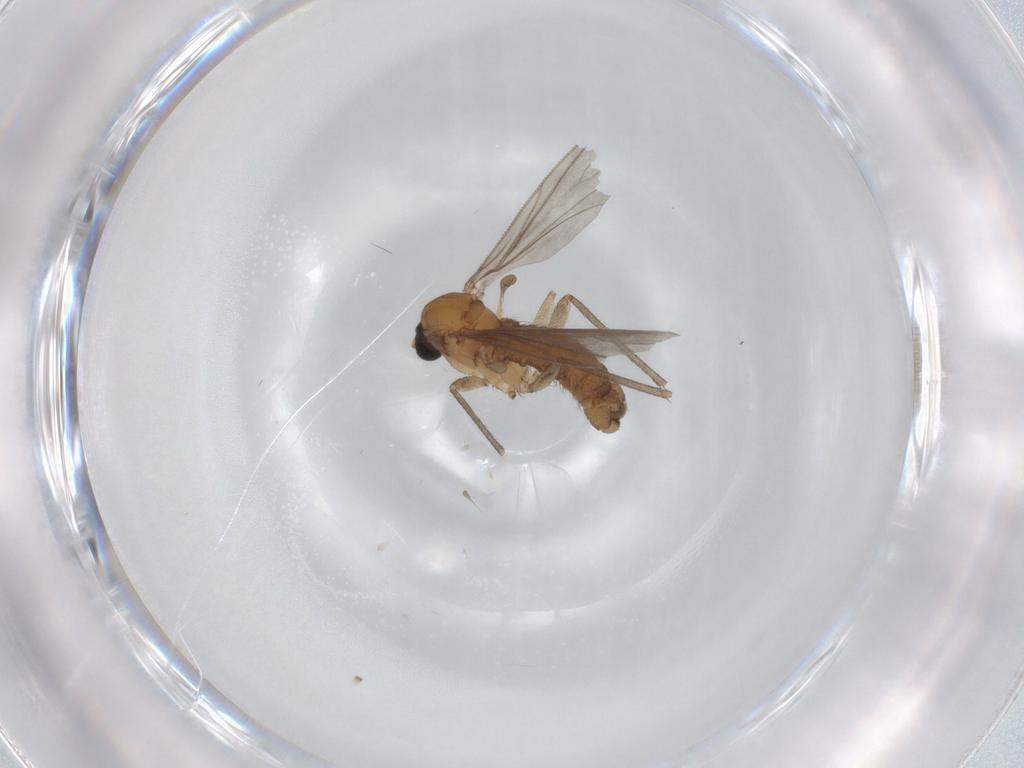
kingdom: Animalia
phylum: Arthropoda
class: Insecta
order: Diptera
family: Sciaridae
